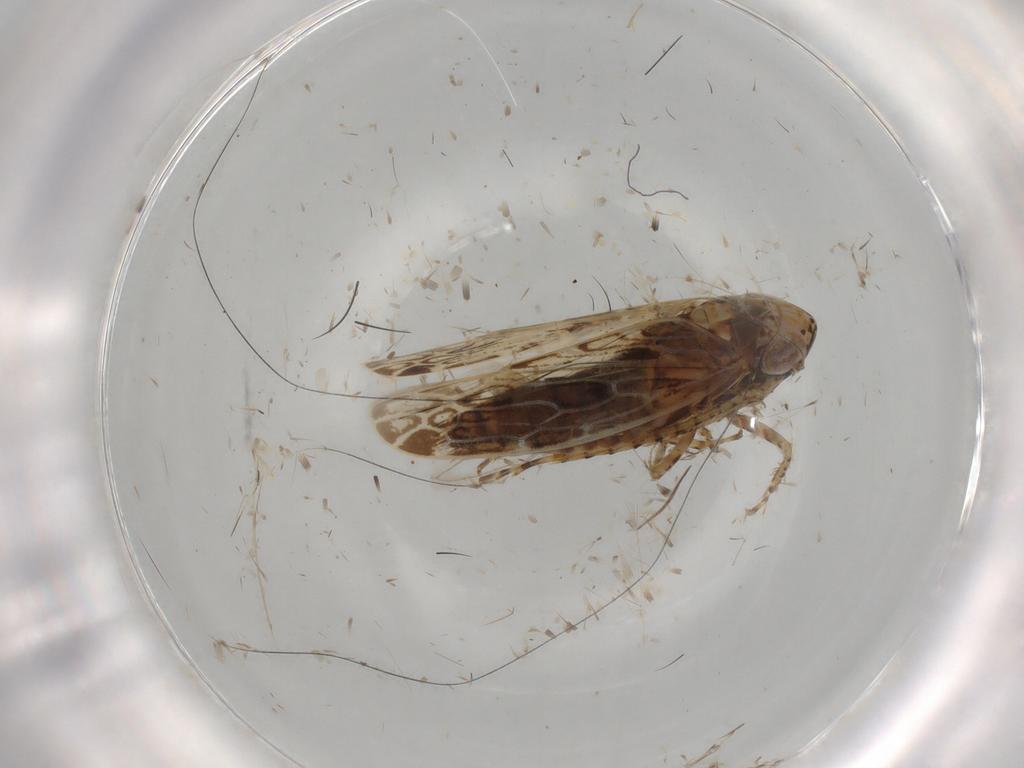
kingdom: Animalia
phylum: Arthropoda
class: Insecta
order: Hemiptera
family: Cicadellidae
